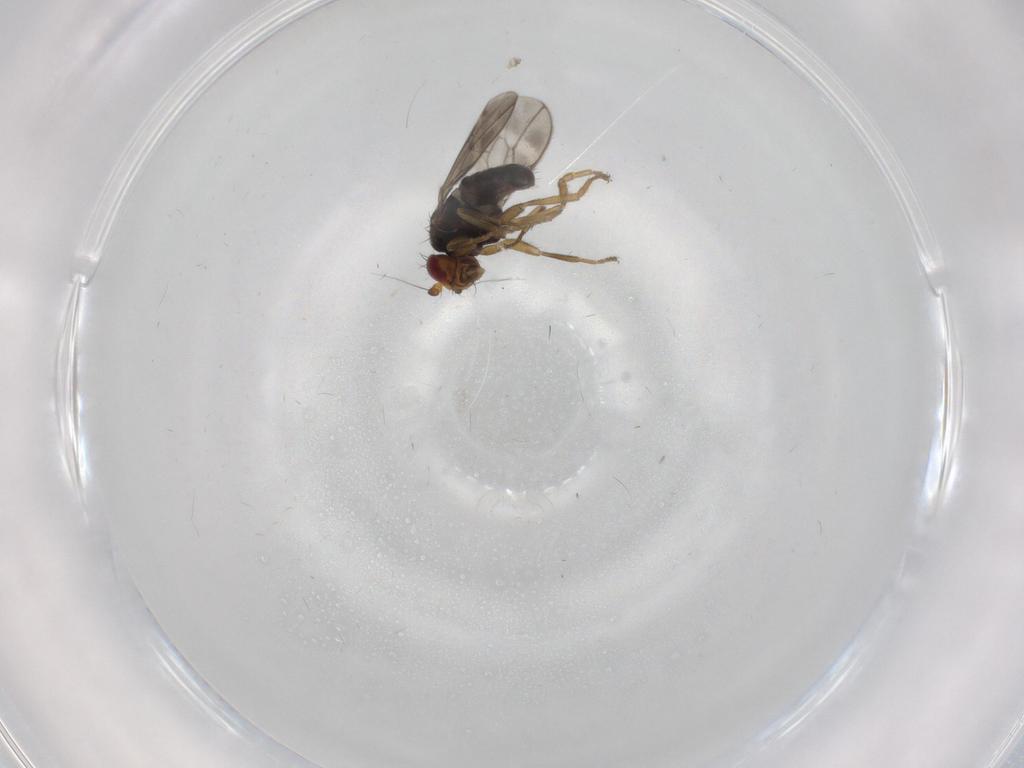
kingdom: Animalia
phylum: Arthropoda
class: Insecta
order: Diptera
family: Sphaeroceridae
